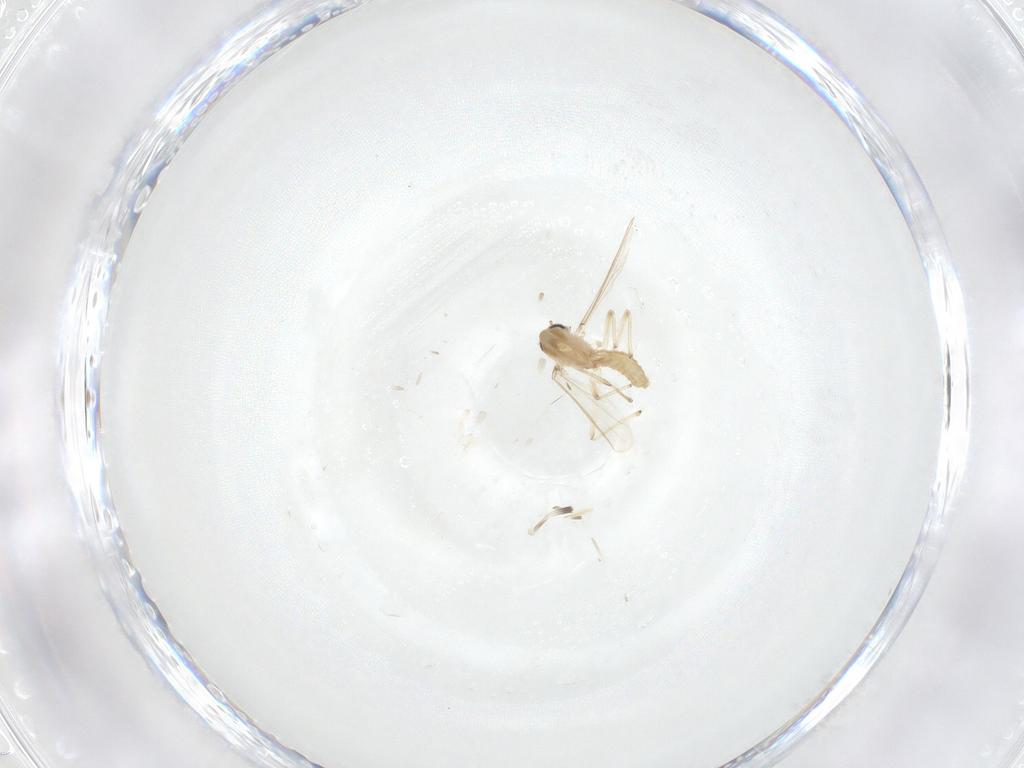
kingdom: Animalia
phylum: Arthropoda
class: Insecta
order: Diptera
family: Chironomidae
